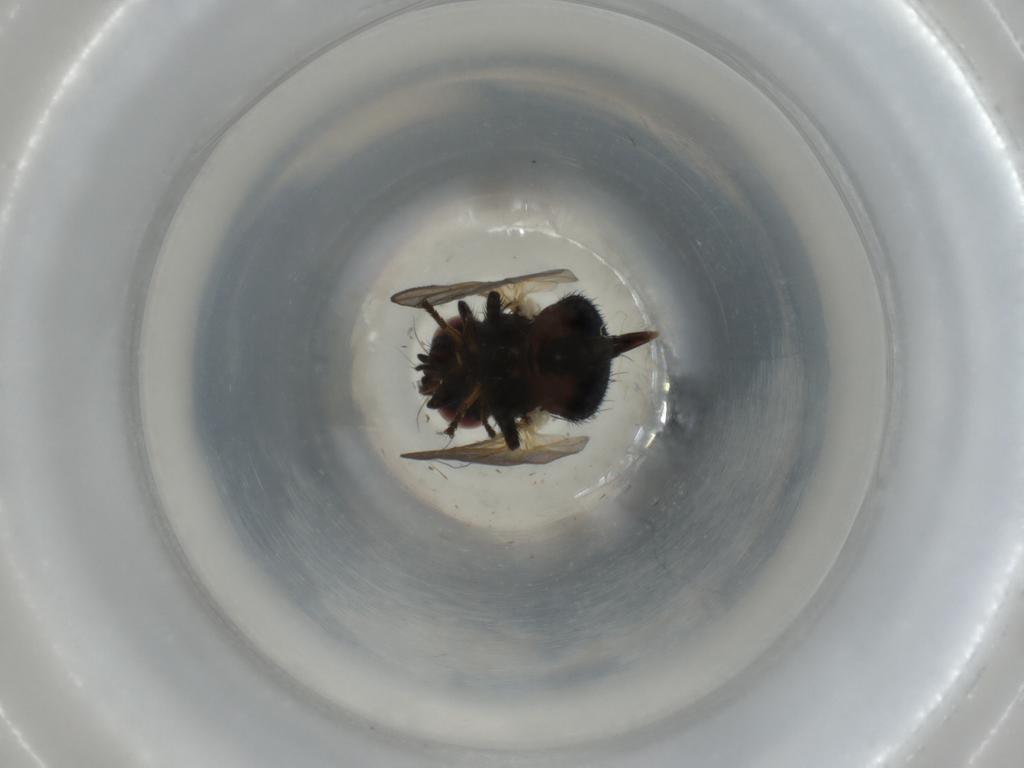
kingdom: Animalia
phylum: Arthropoda
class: Insecta
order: Diptera
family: Lonchaeidae
